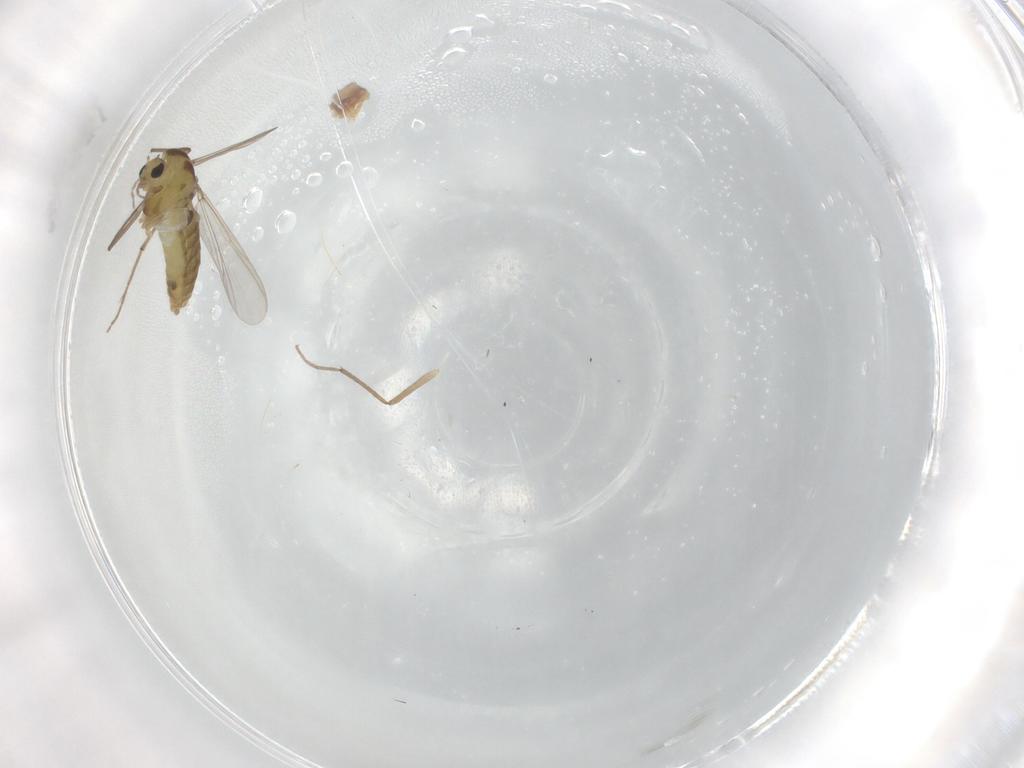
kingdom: Animalia
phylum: Arthropoda
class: Insecta
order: Diptera
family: Chironomidae
